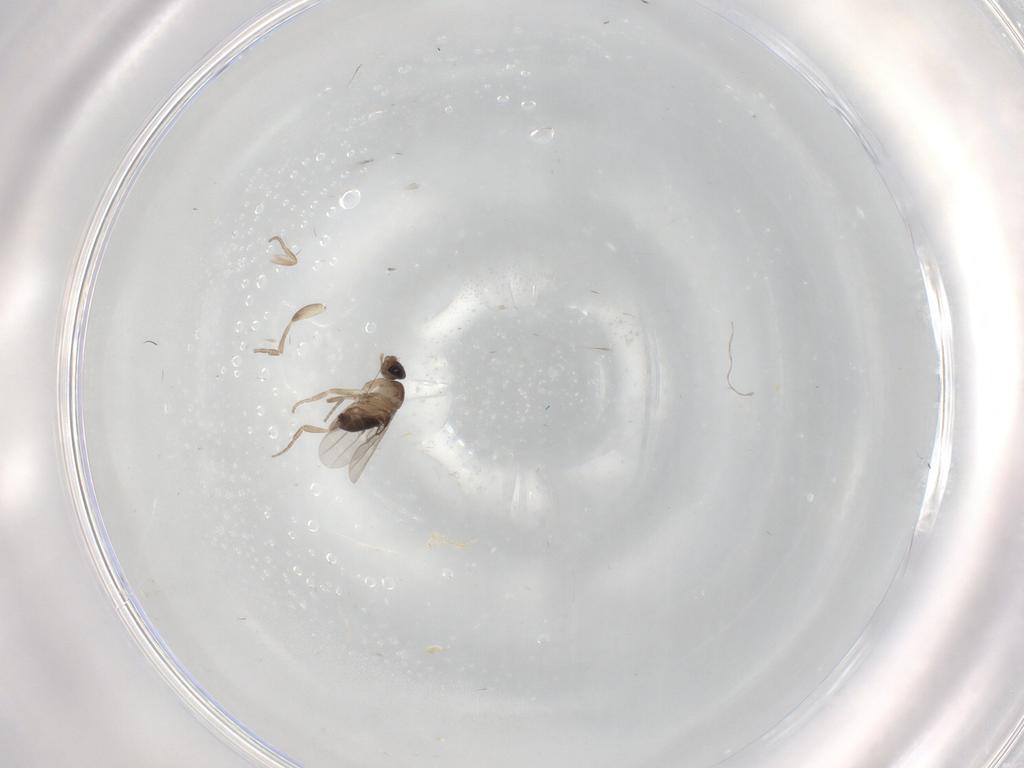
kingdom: Animalia
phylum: Arthropoda
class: Insecta
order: Diptera
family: Phoridae
